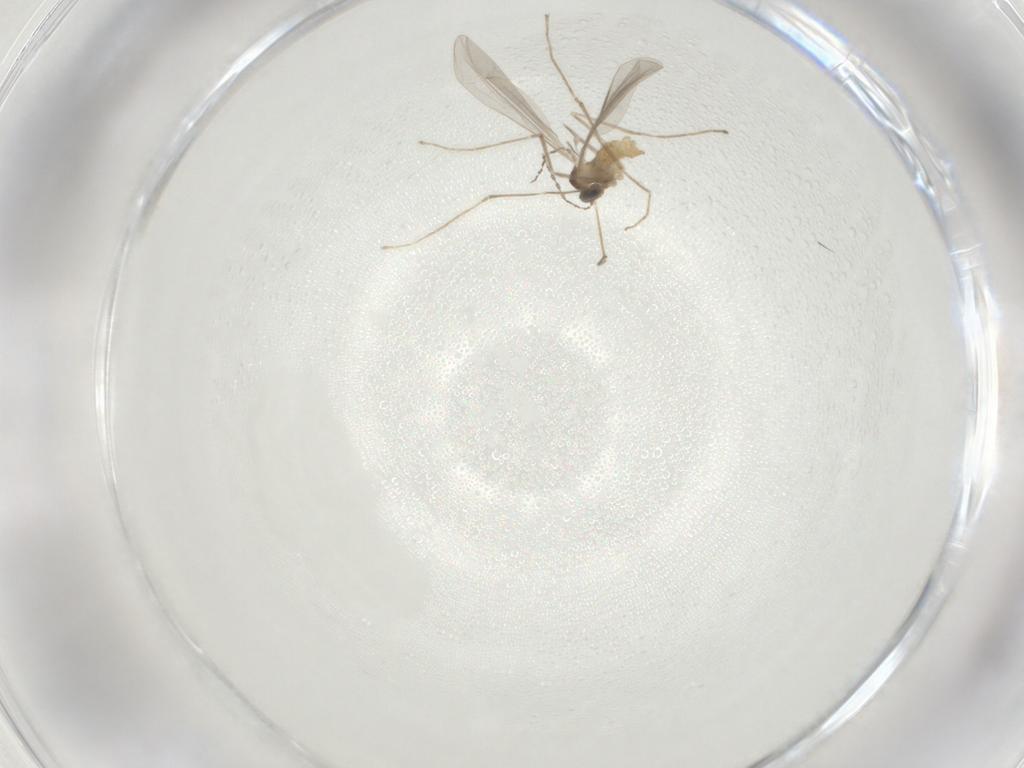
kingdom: Animalia
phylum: Arthropoda
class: Insecta
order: Diptera
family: Cecidomyiidae
